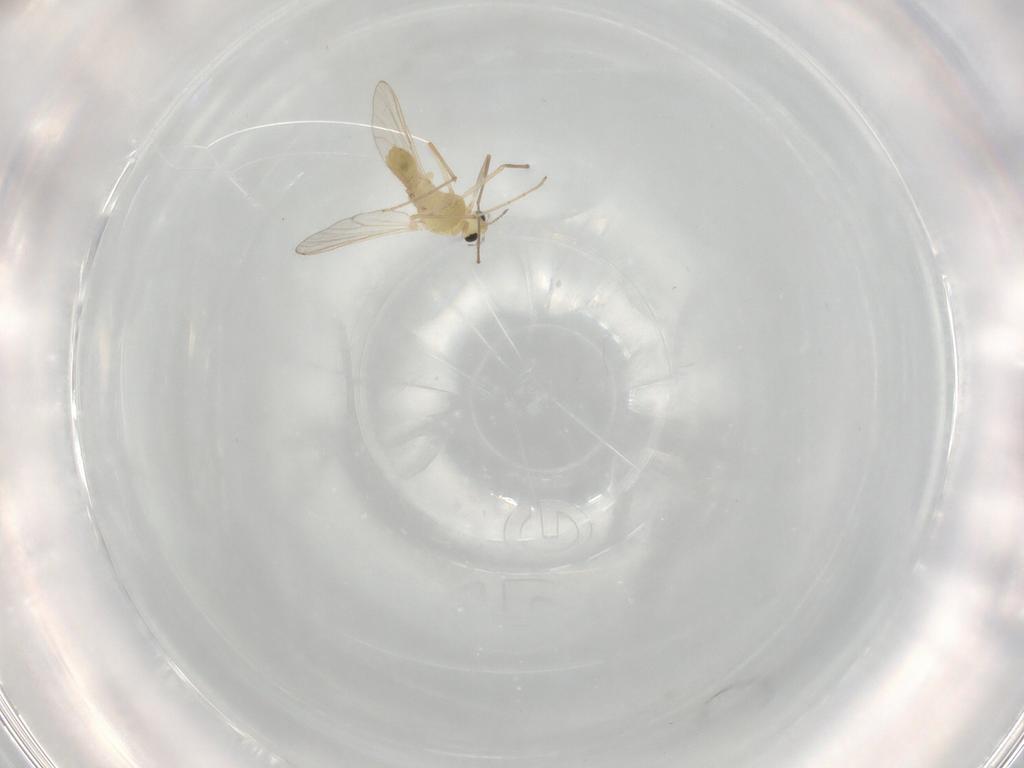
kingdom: Animalia
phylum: Arthropoda
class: Insecta
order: Diptera
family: Chironomidae
